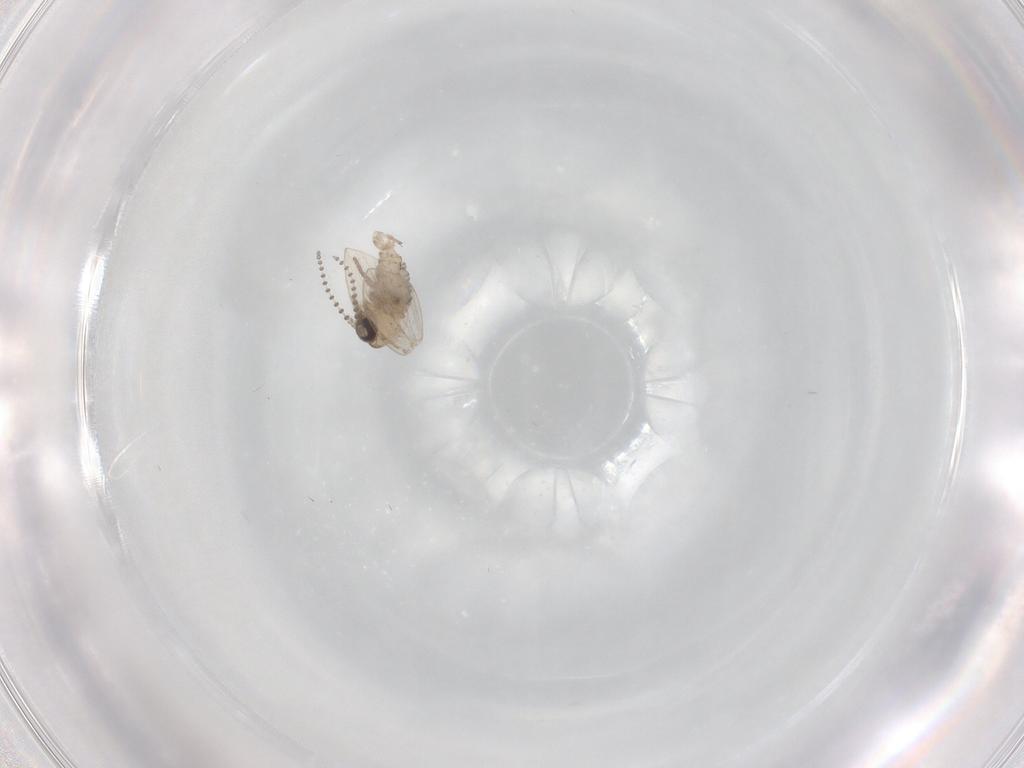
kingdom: Animalia
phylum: Arthropoda
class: Insecta
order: Diptera
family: Psychodidae
